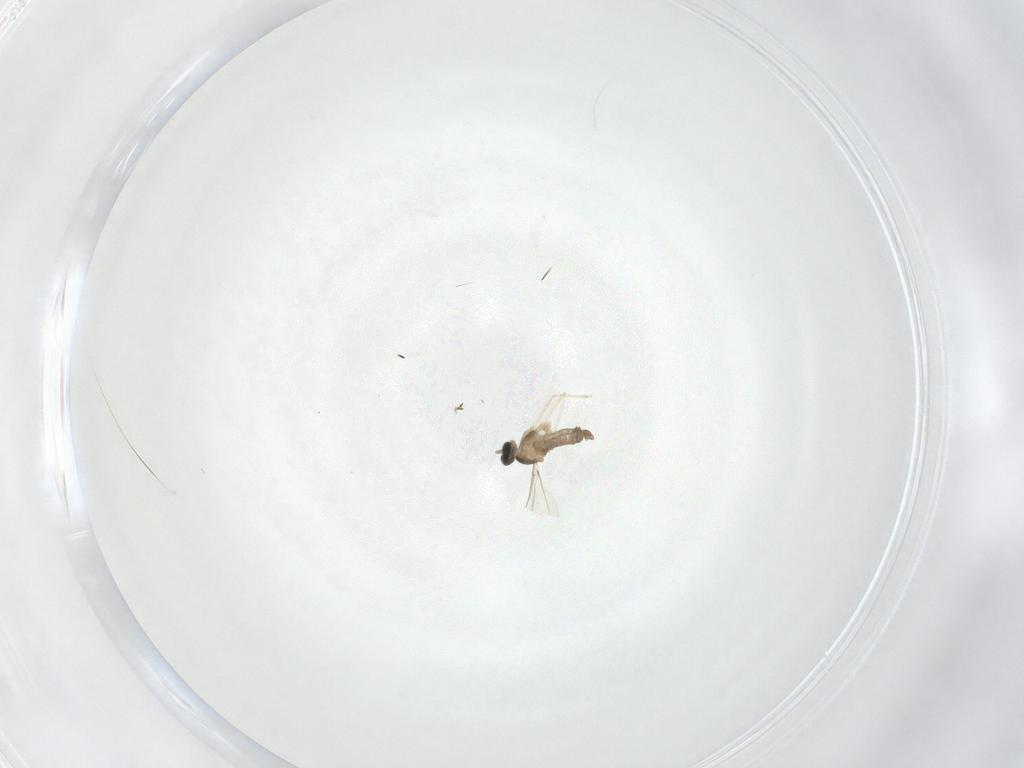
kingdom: Animalia
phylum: Arthropoda
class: Insecta
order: Diptera
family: Cecidomyiidae
